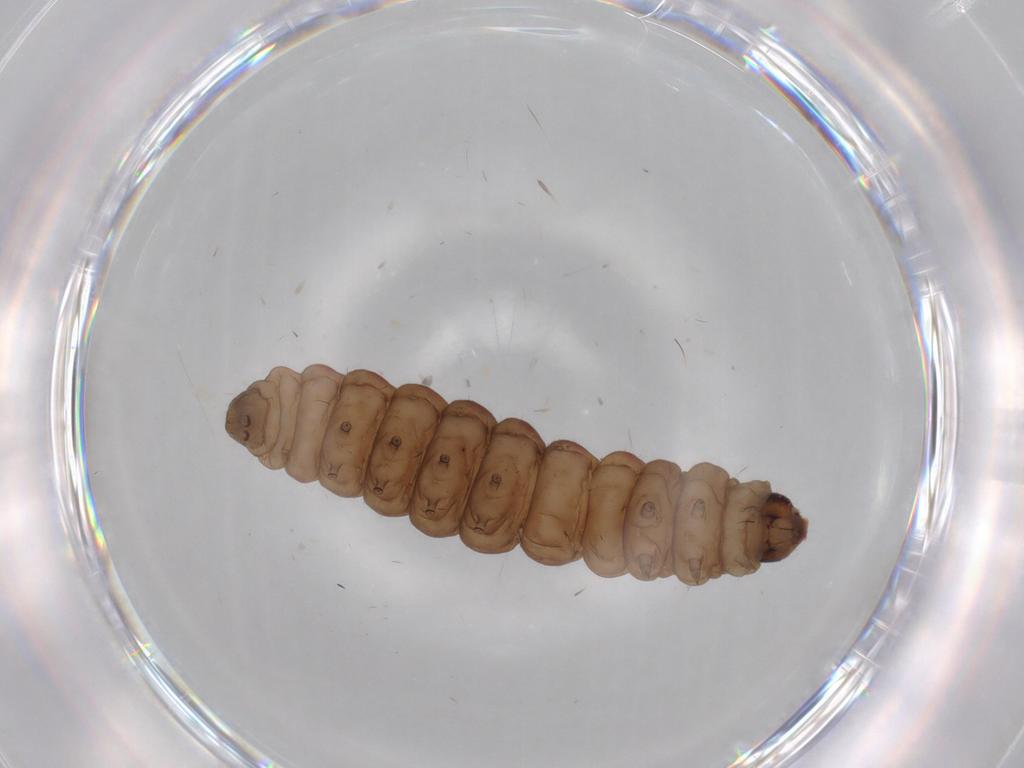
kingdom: Animalia
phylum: Arthropoda
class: Insecta
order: Lepidoptera
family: Heliodinidae
